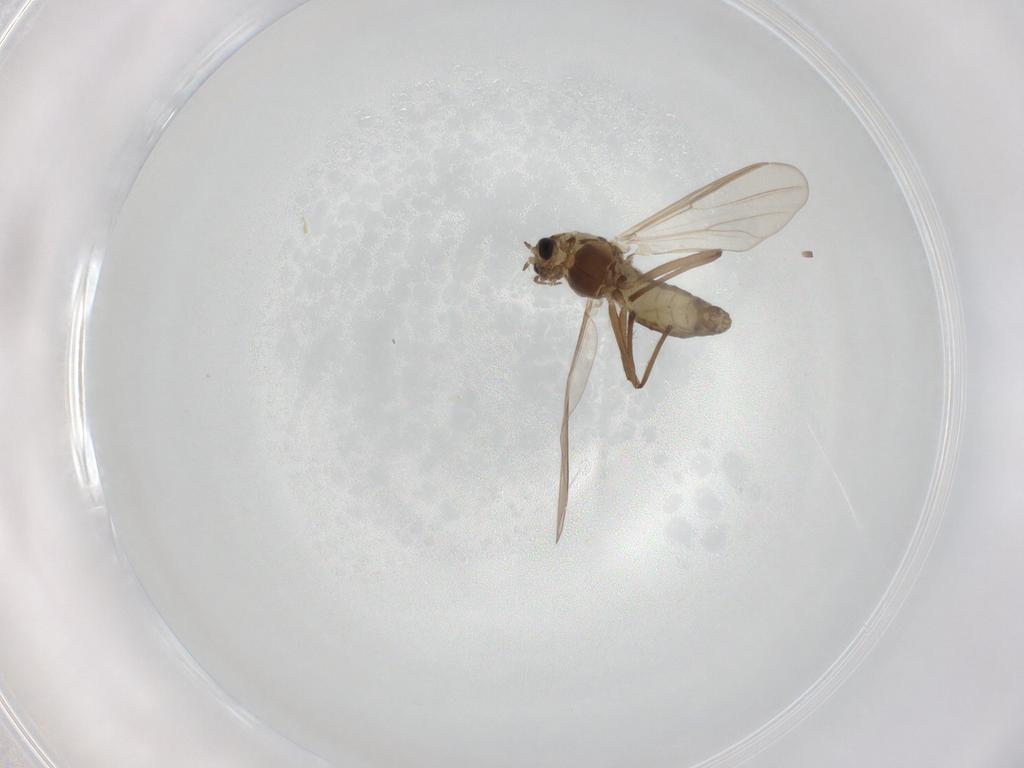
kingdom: Animalia
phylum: Arthropoda
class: Insecta
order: Diptera
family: Chironomidae
